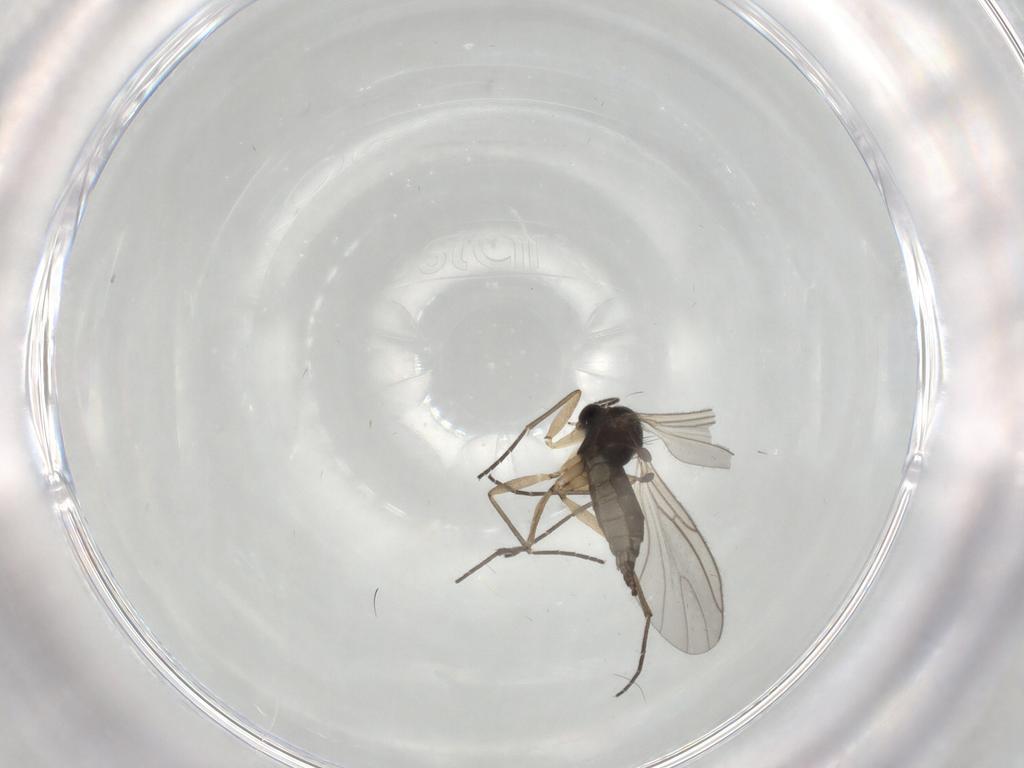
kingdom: Animalia
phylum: Arthropoda
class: Insecta
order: Diptera
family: Sciaridae
